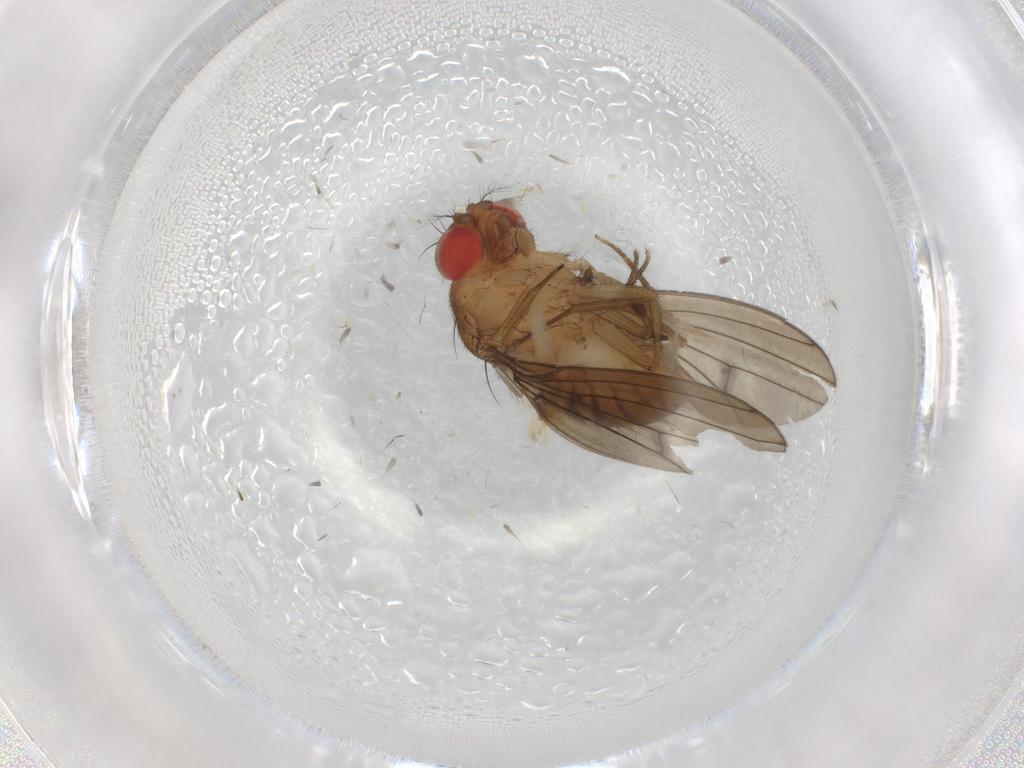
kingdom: Animalia
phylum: Arthropoda
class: Insecta
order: Diptera
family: Drosophilidae
